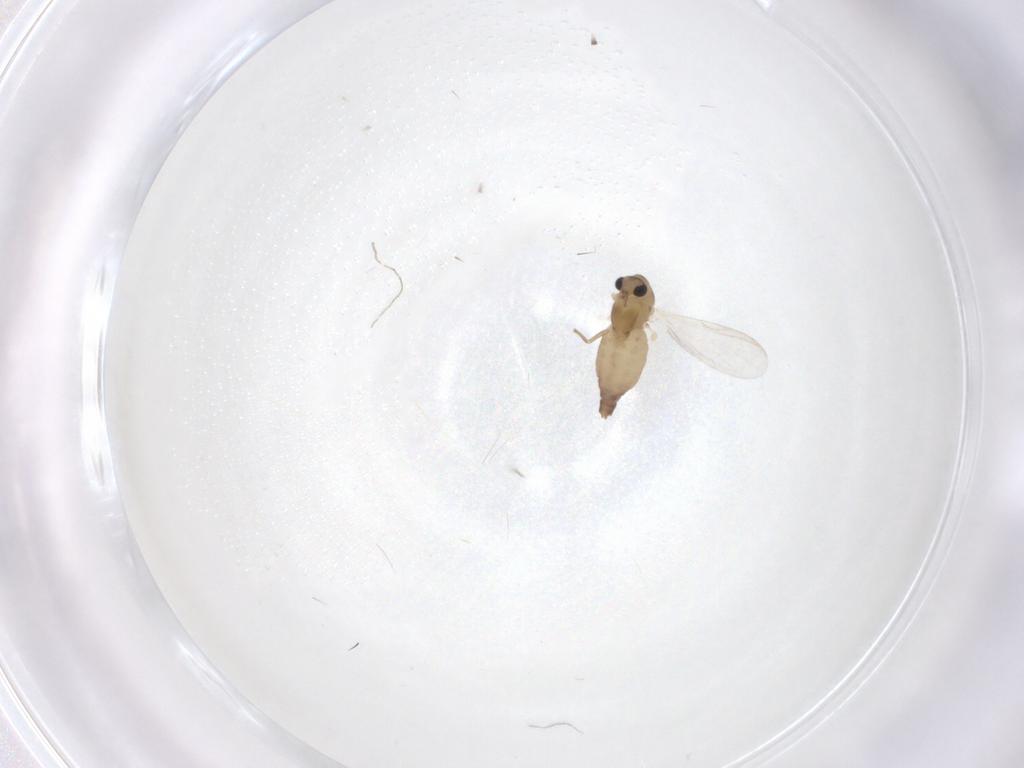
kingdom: Animalia
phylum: Arthropoda
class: Insecta
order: Diptera
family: Chironomidae
